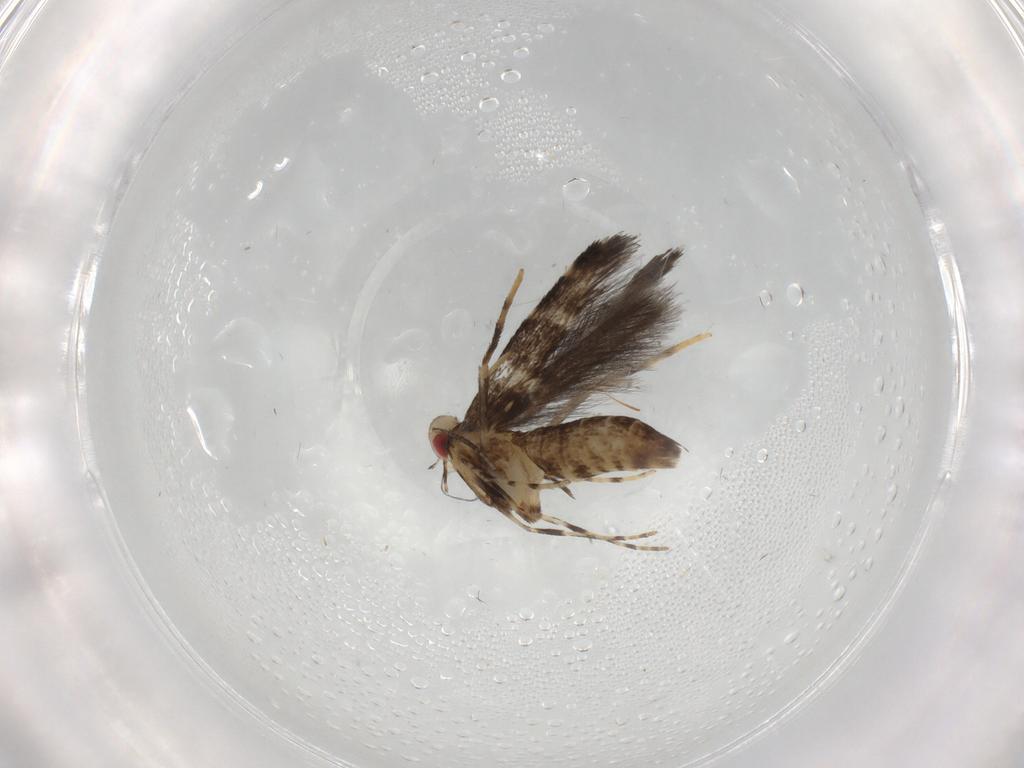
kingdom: Animalia
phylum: Arthropoda
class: Insecta
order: Lepidoptera
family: Gracillariidae
